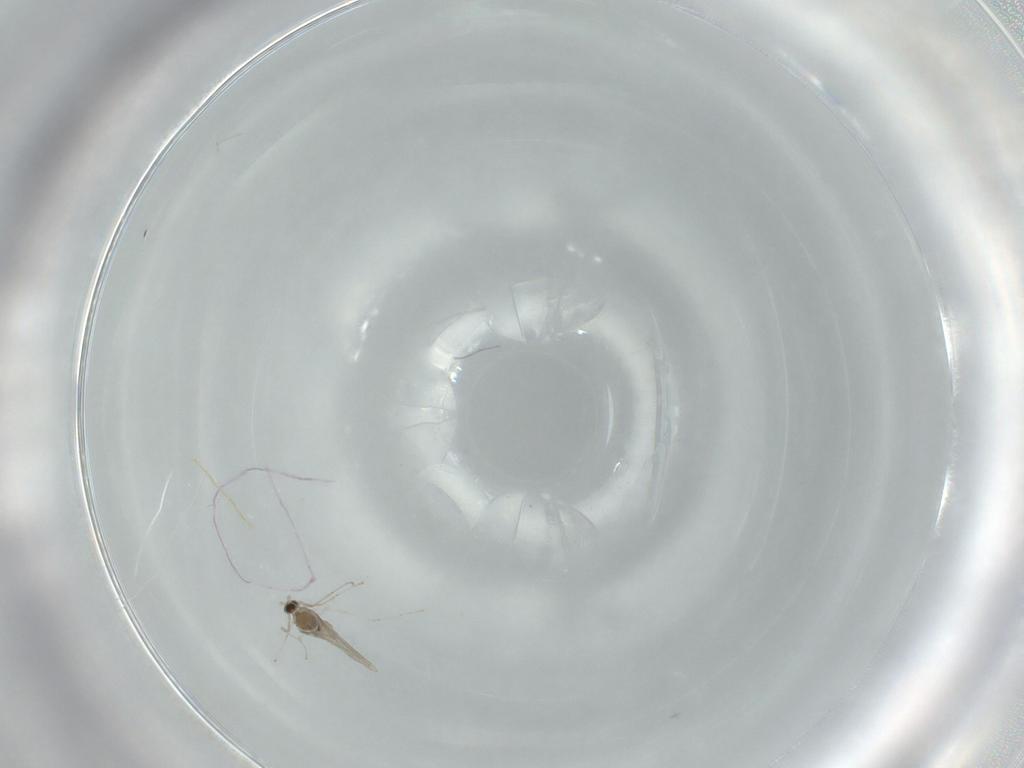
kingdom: Animalia
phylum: Arthropoda
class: Insecta
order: Diptera
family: Cecidomyiidae
